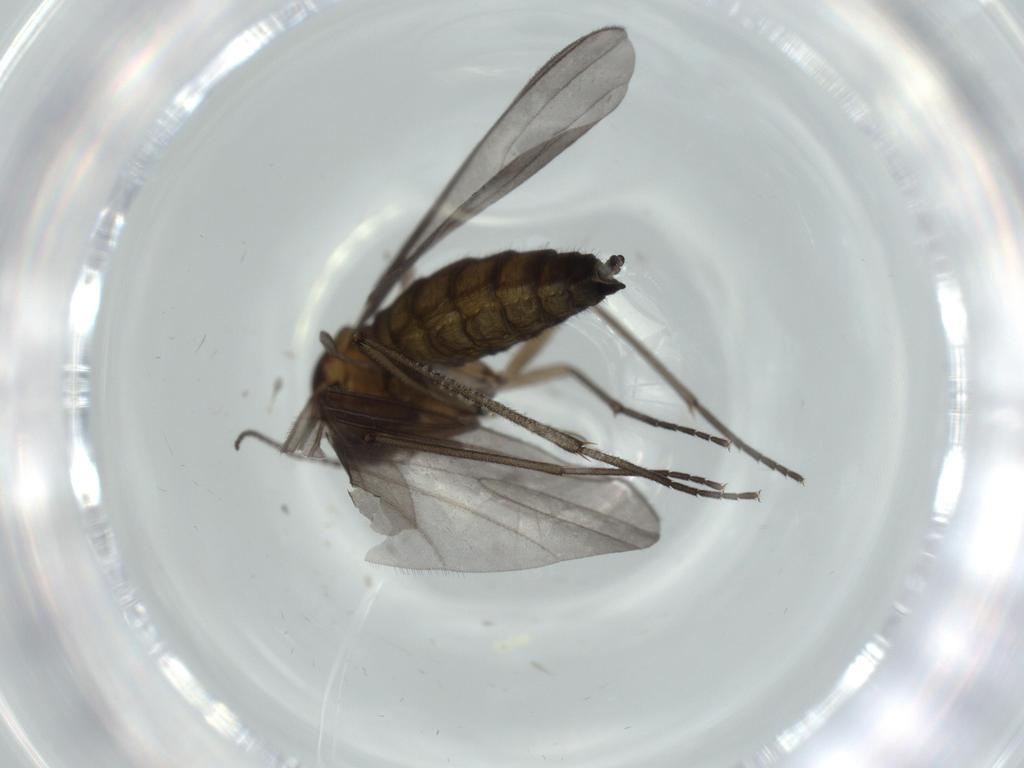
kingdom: Animalia
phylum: Arthropoda
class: Insecta
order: Diptera
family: Sciaridae
